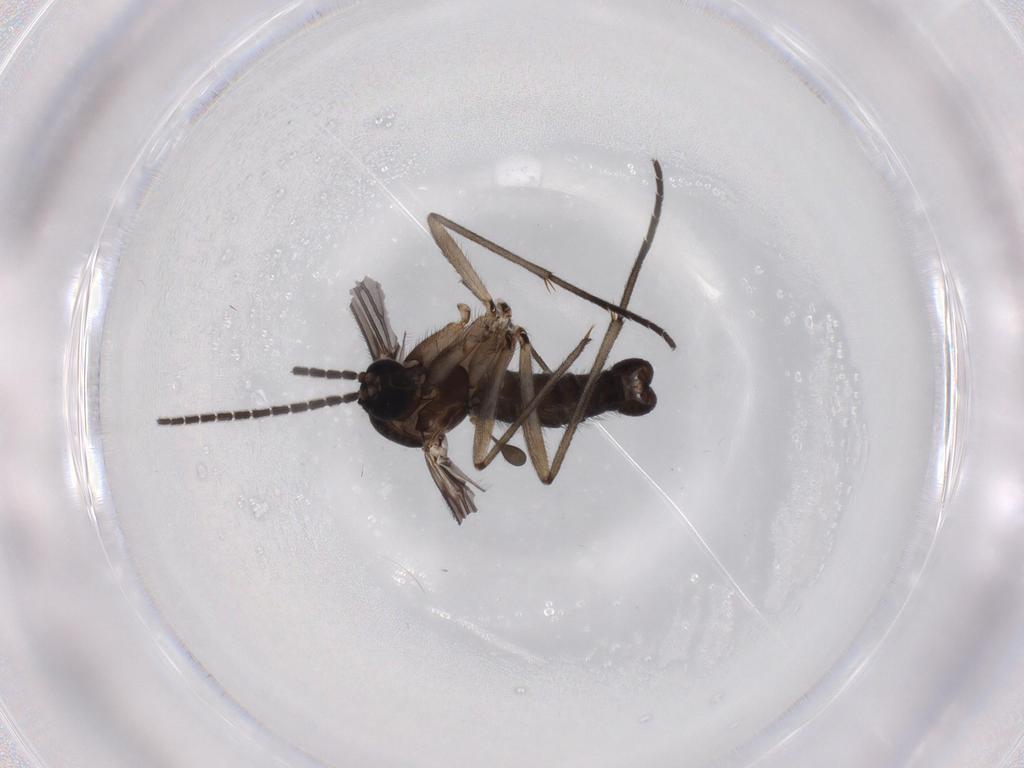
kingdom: Animalia
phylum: Arthropoda
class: Insecta
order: Diptera
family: Sciaridae
